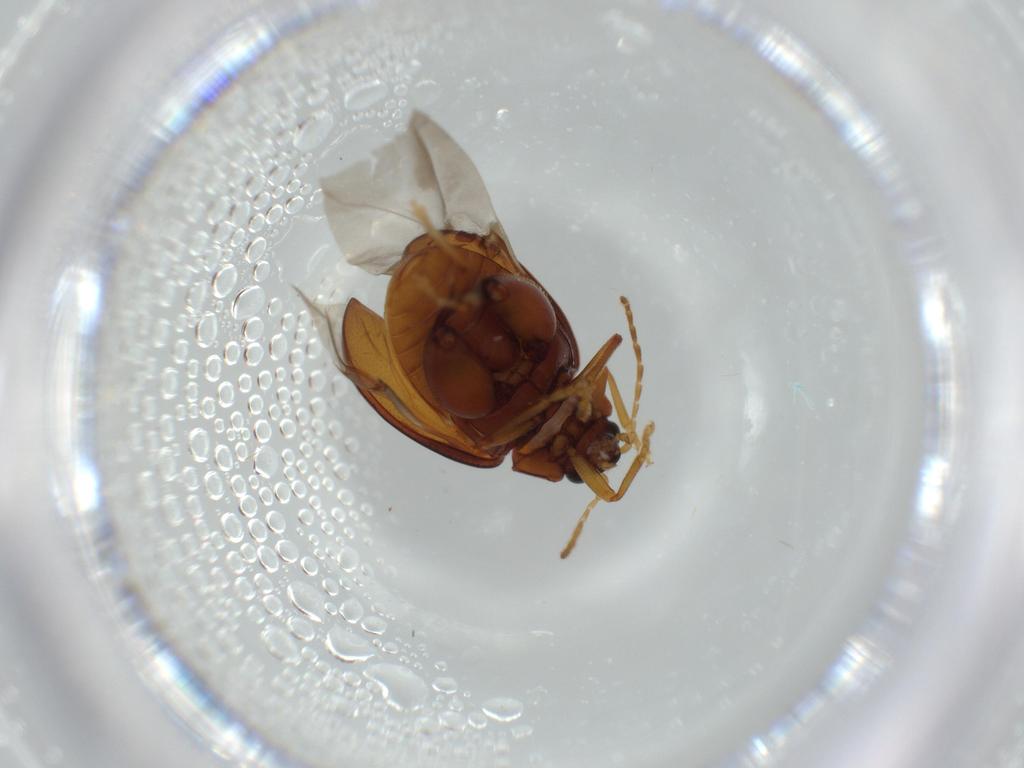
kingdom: Animalia
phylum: Arthropoda
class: Insecta
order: Coleoptera
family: Chrysomelidae
